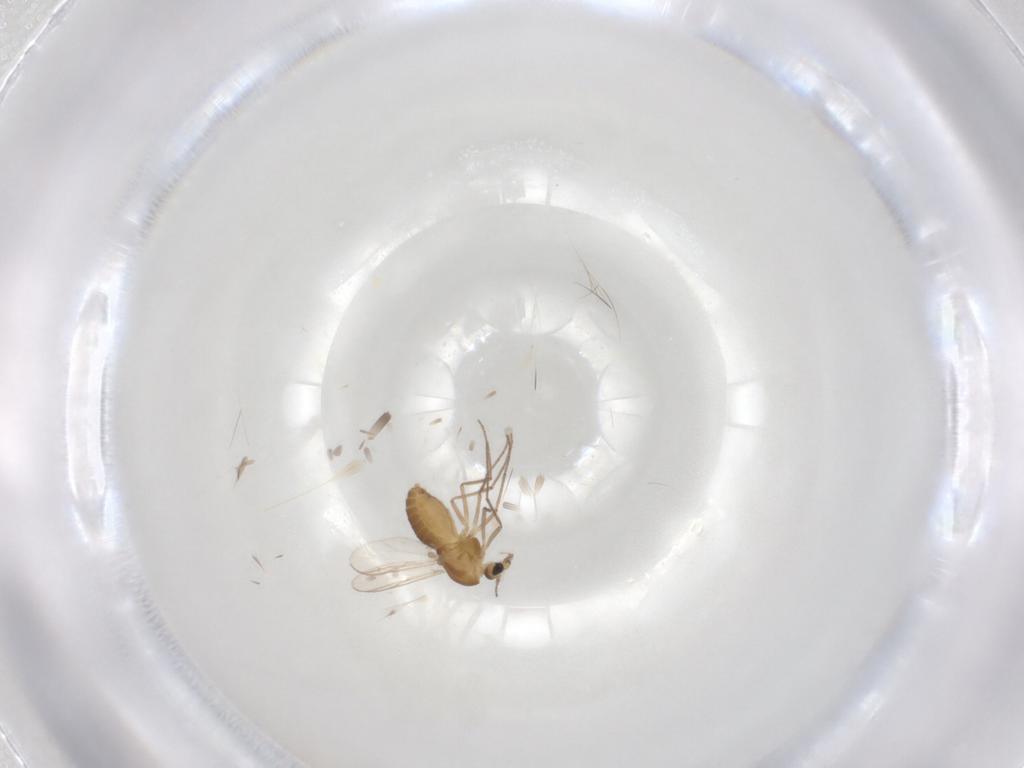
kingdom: Animalia
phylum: Arthropoda
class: Insecta
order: Diptera
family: Chironomidae
